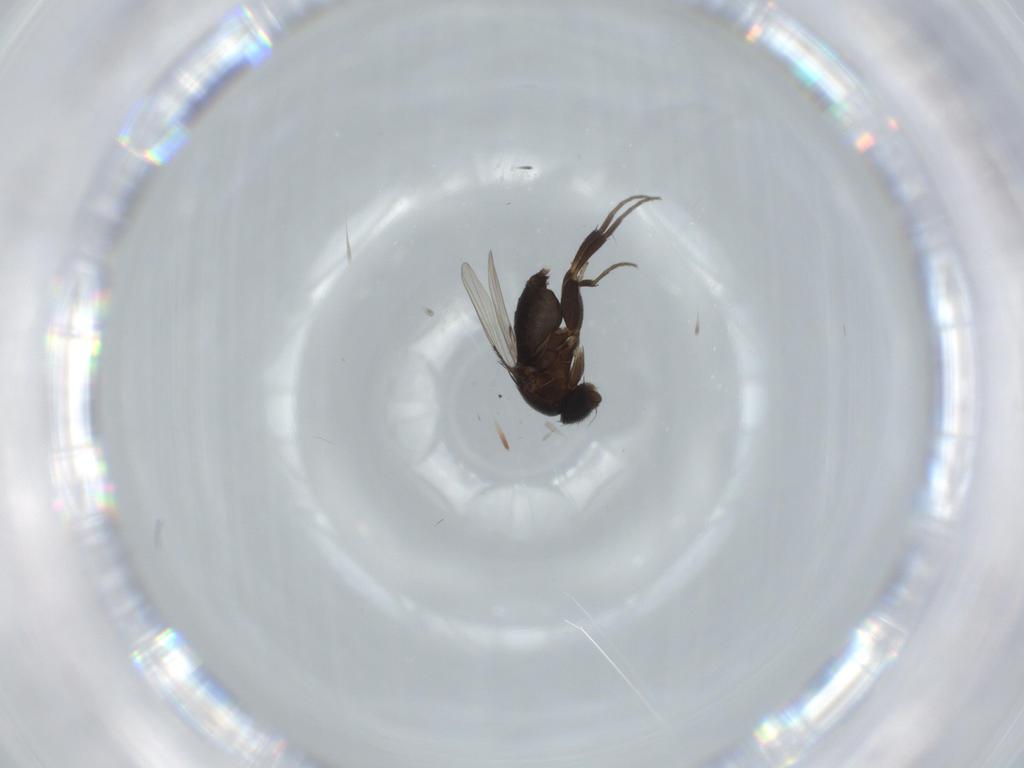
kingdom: Animalia
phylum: Arthropoda
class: Insecta
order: Diptera
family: Phoridae
